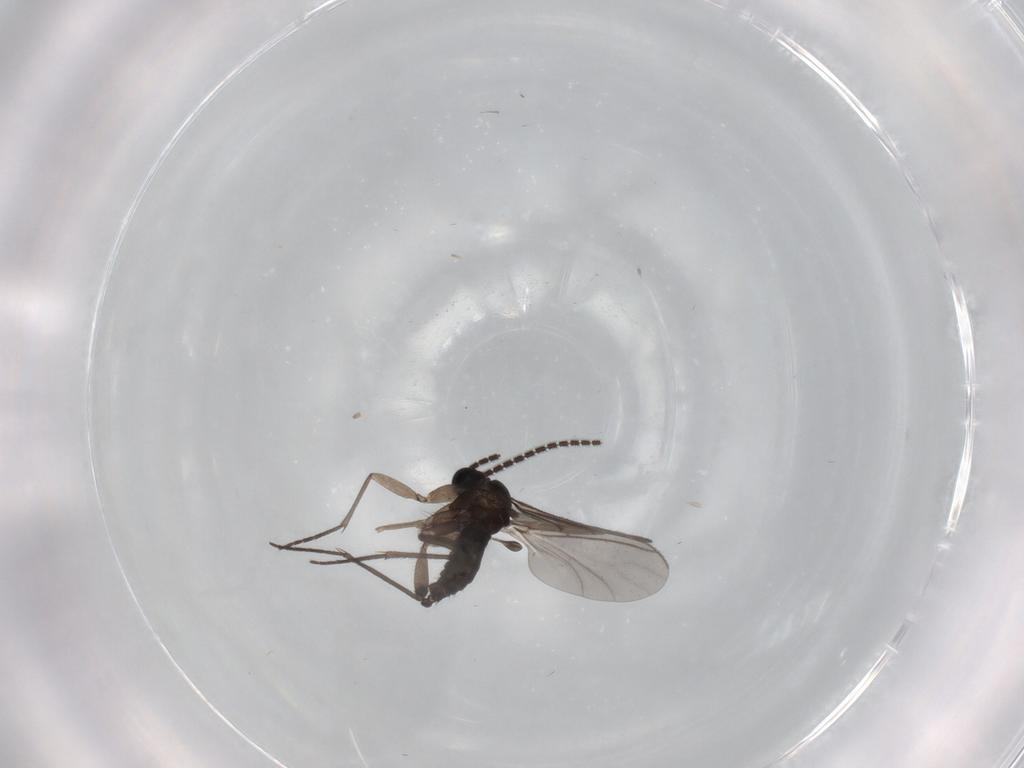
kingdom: Animalia
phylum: Arthropoda
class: Insecta
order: Diptera
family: Sciaridae
